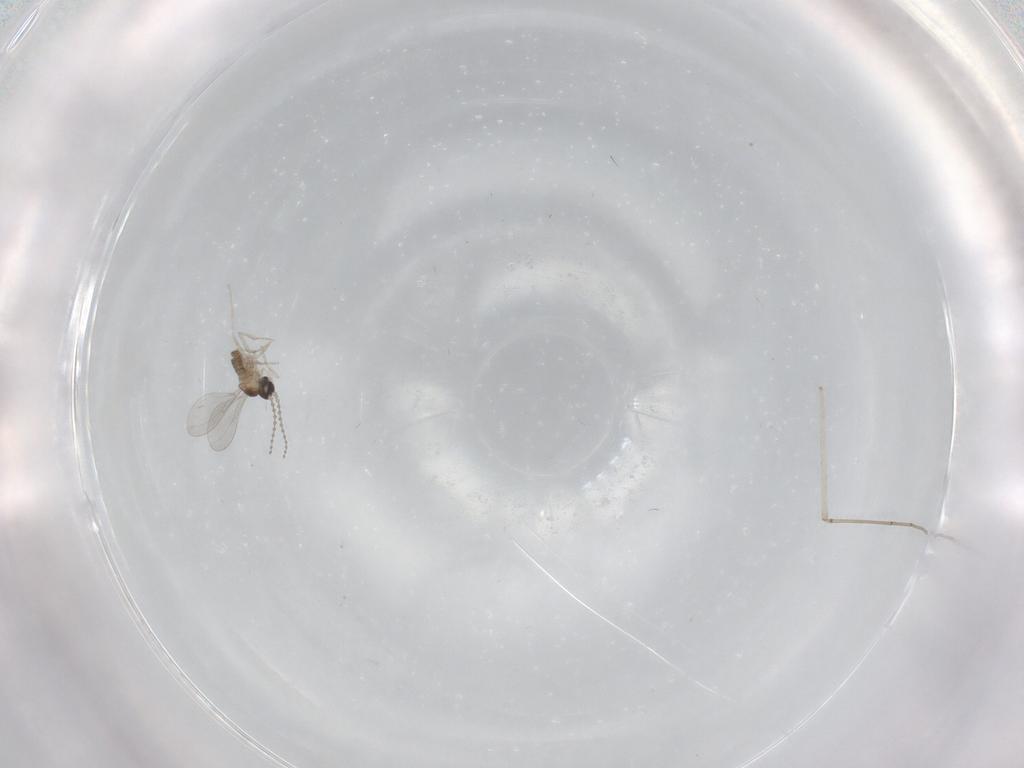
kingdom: Animalia
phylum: Arthropoda
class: Insecta
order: Diptera
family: Cecidomyiidae
